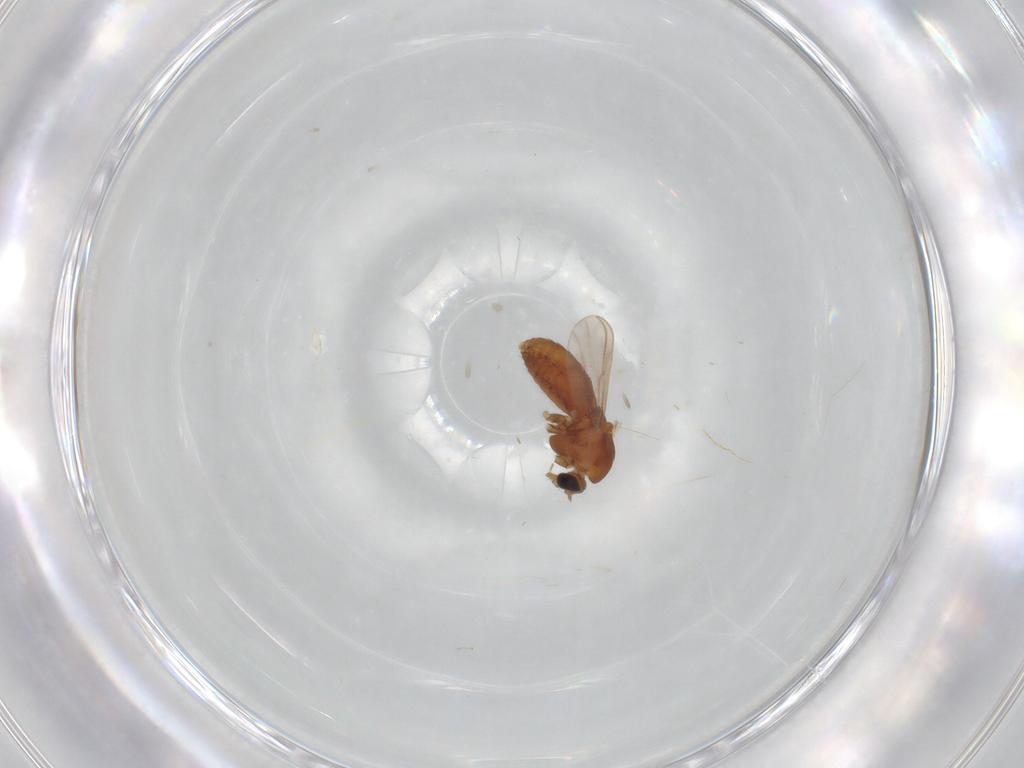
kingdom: Animalia
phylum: Arthropoda
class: Insecta
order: Diptera
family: Chironomidae
